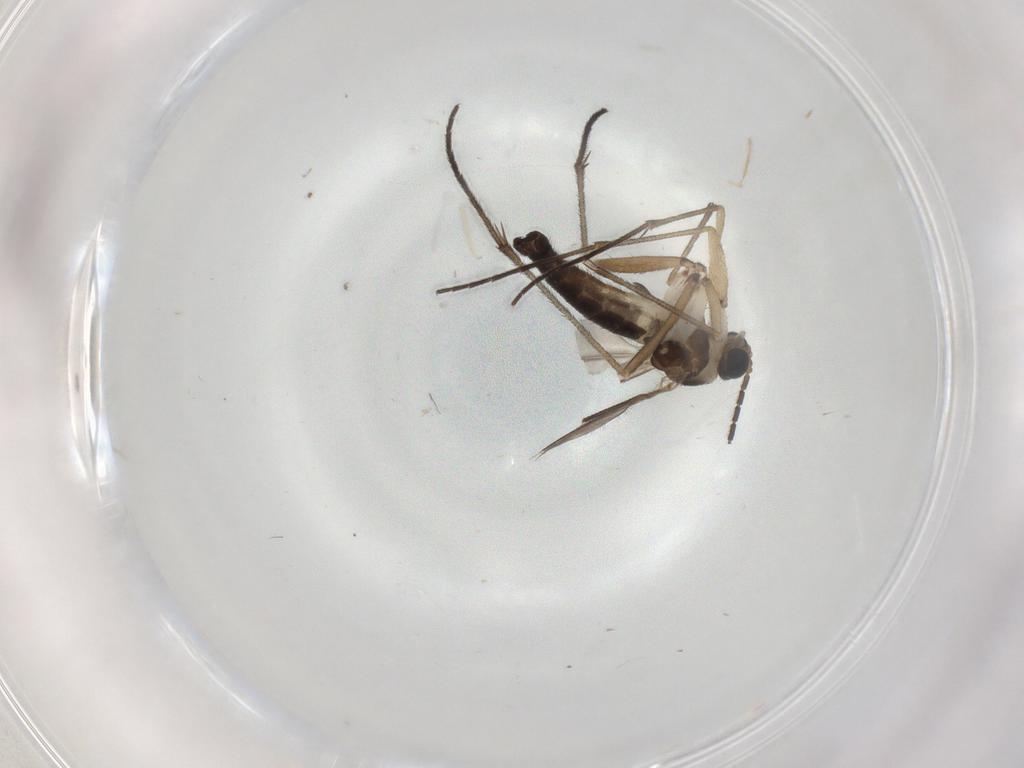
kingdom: Animalia
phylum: Arthropoda
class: Insecta
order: Diptera
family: Sciaridae
